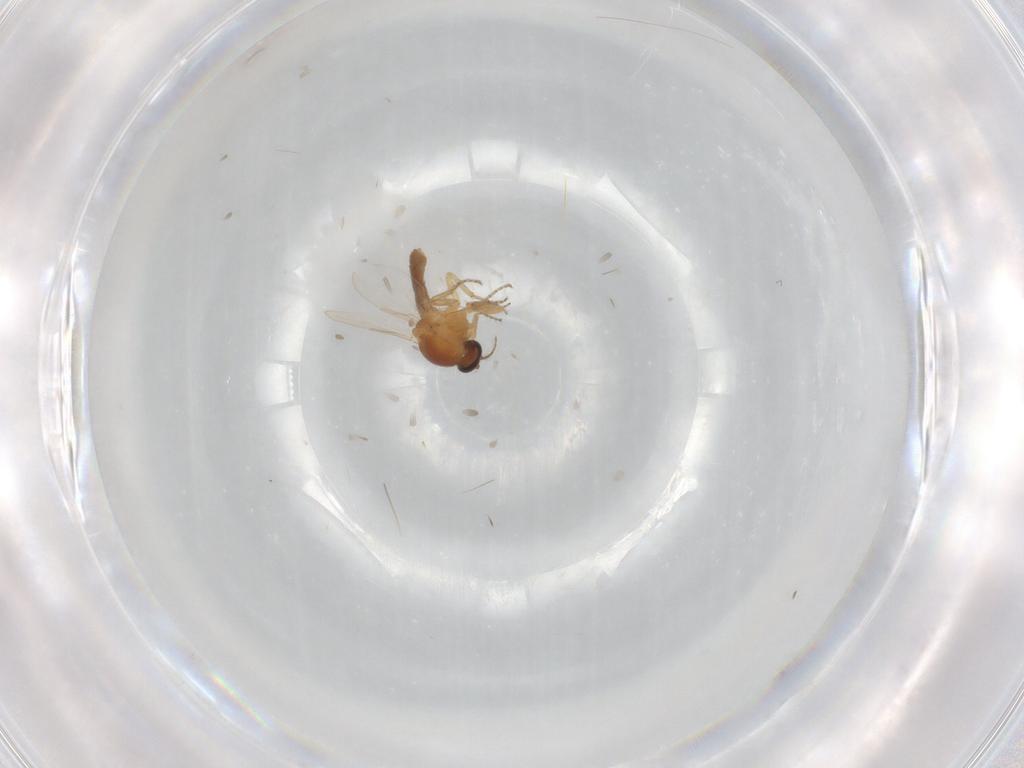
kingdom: Animalia
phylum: Arthropoda
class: Insecta
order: Diptera
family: Ceratopogonidae
